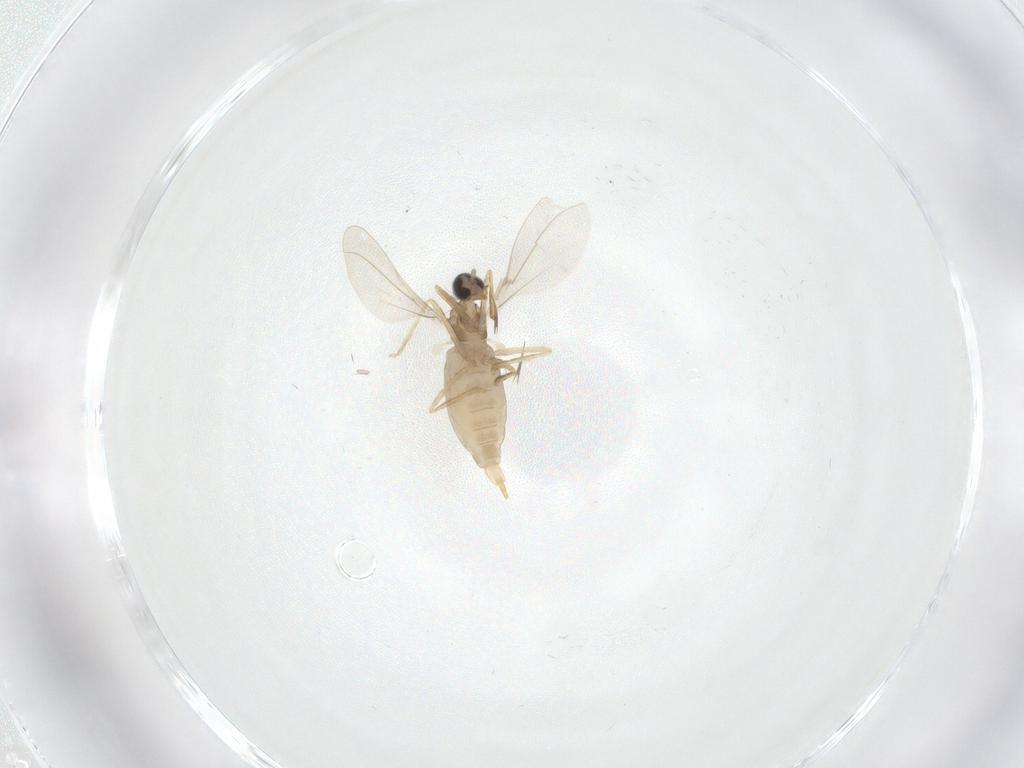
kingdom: Animalia
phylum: Arthropoda
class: Insecta
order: Diptera
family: Cecidomyiidae
